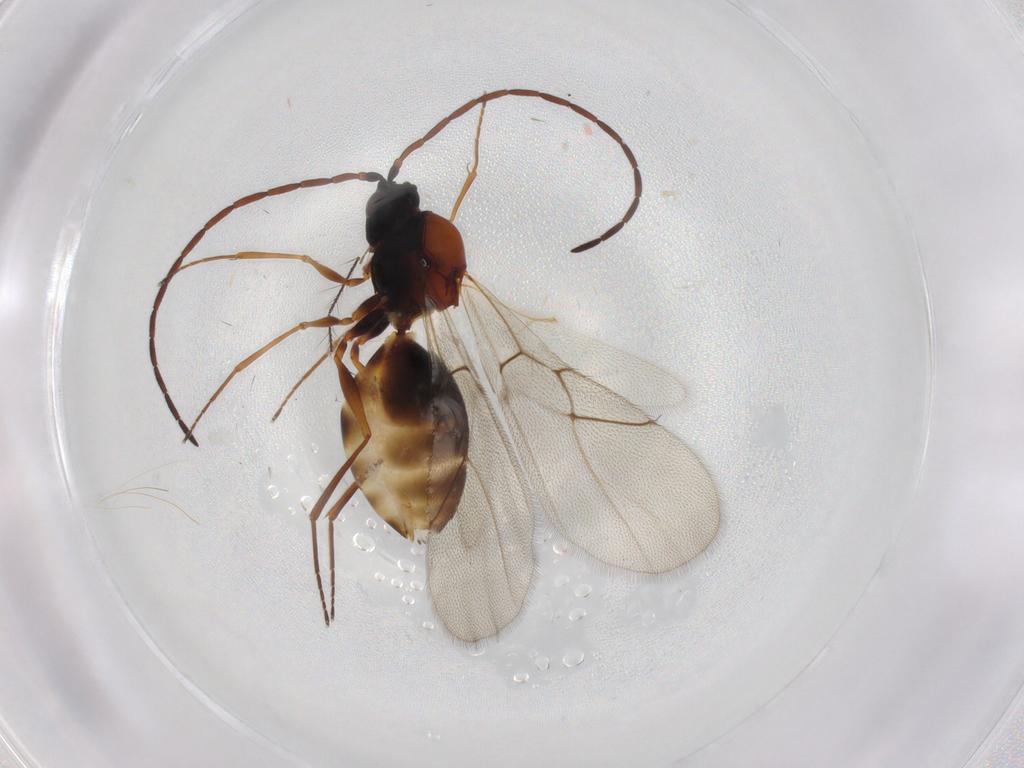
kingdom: Animalia
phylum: Arthropoda
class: Insecta
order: Hymenoptera
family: Figitidae
